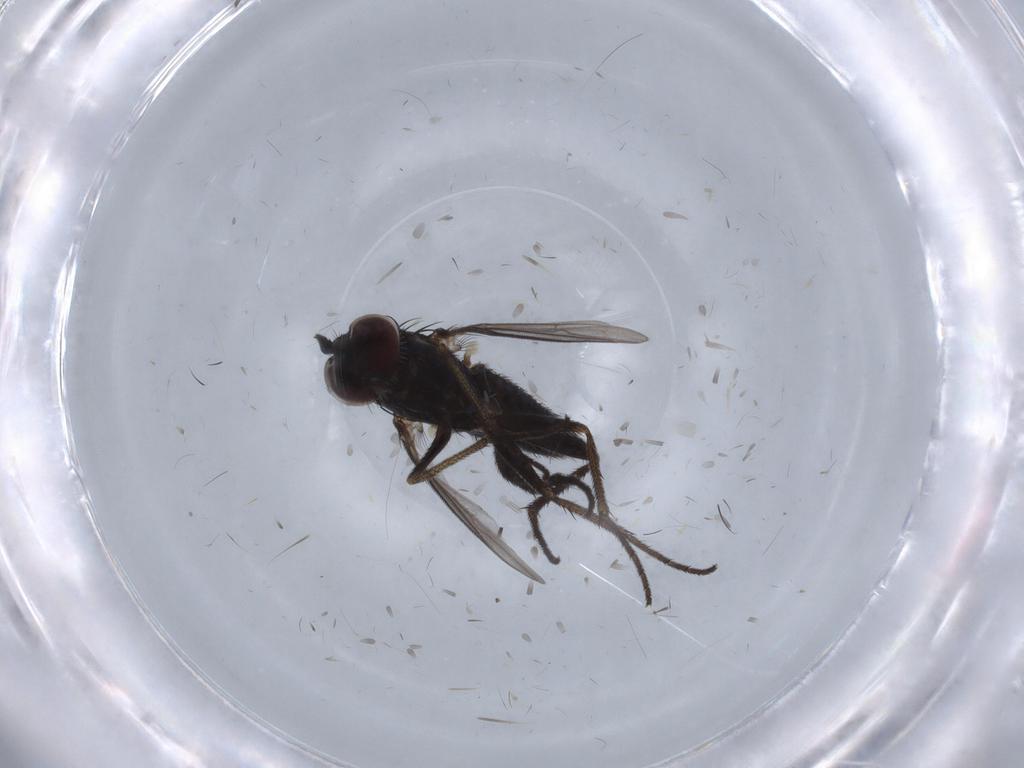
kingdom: Animalia
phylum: Arthropoda
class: Insecta
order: Diptera
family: Dolichopodidae
